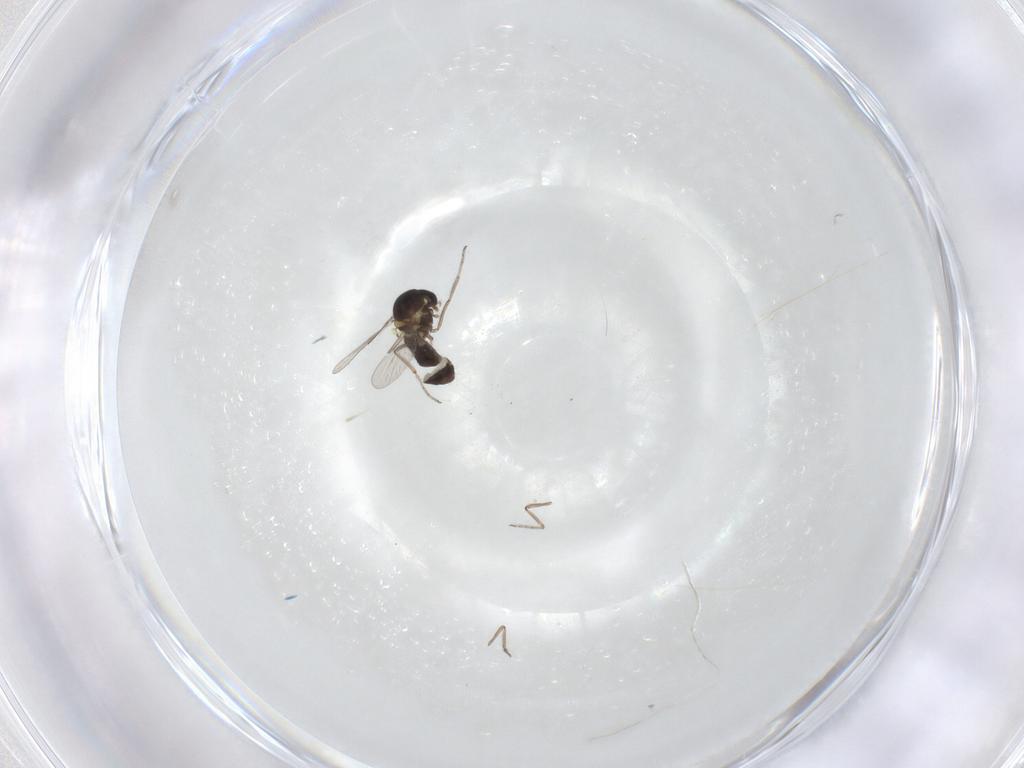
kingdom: Animalia
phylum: Arthropoda
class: Insecta
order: Diptera
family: Ceratopogonidae
